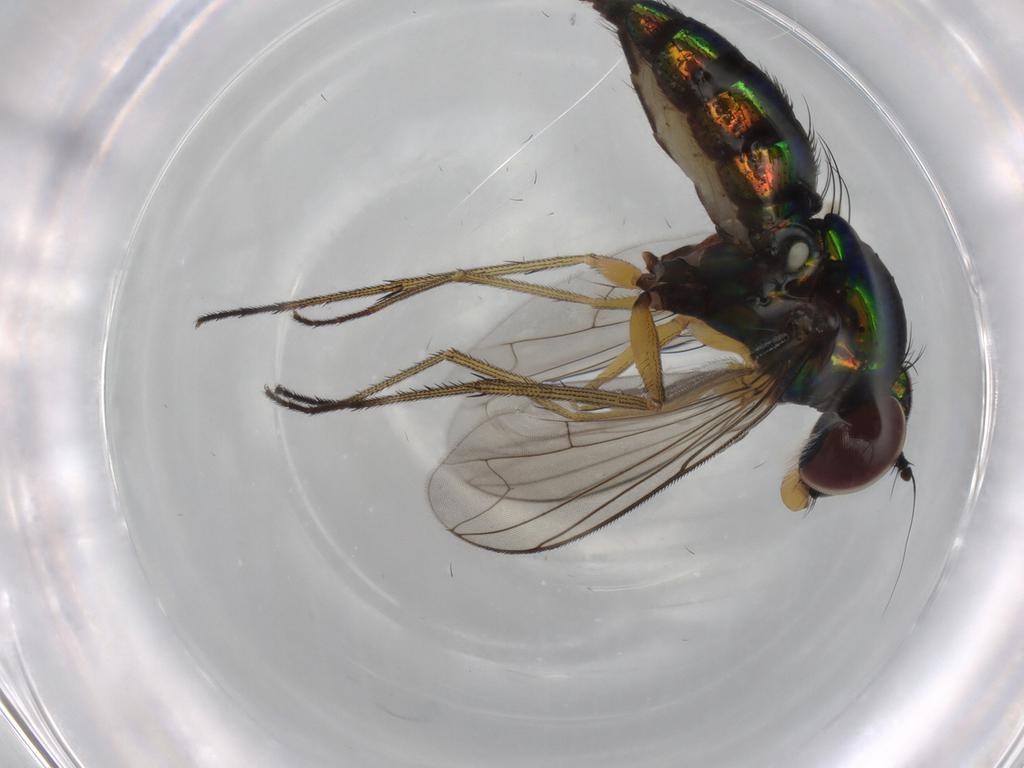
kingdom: Animalia
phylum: Arthropoda
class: Insecta
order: Diptera
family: Dolichopodidae
